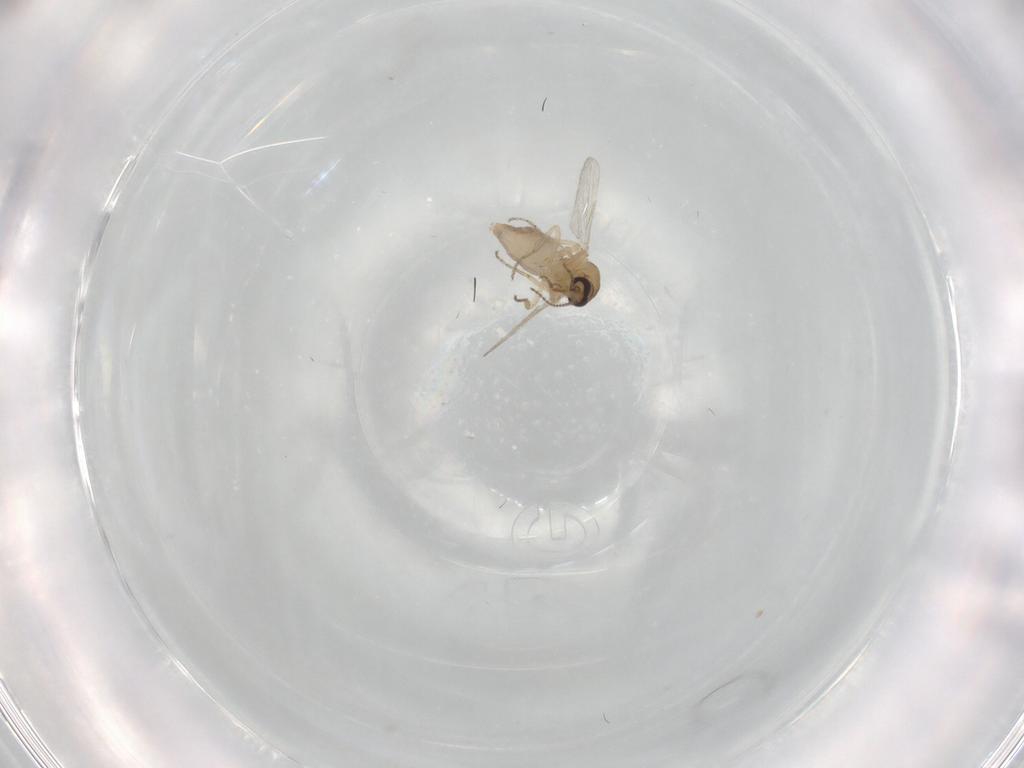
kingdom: Animalia
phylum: Arthropoda
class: Insecta
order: Diptera
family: Ceratopogonidae
